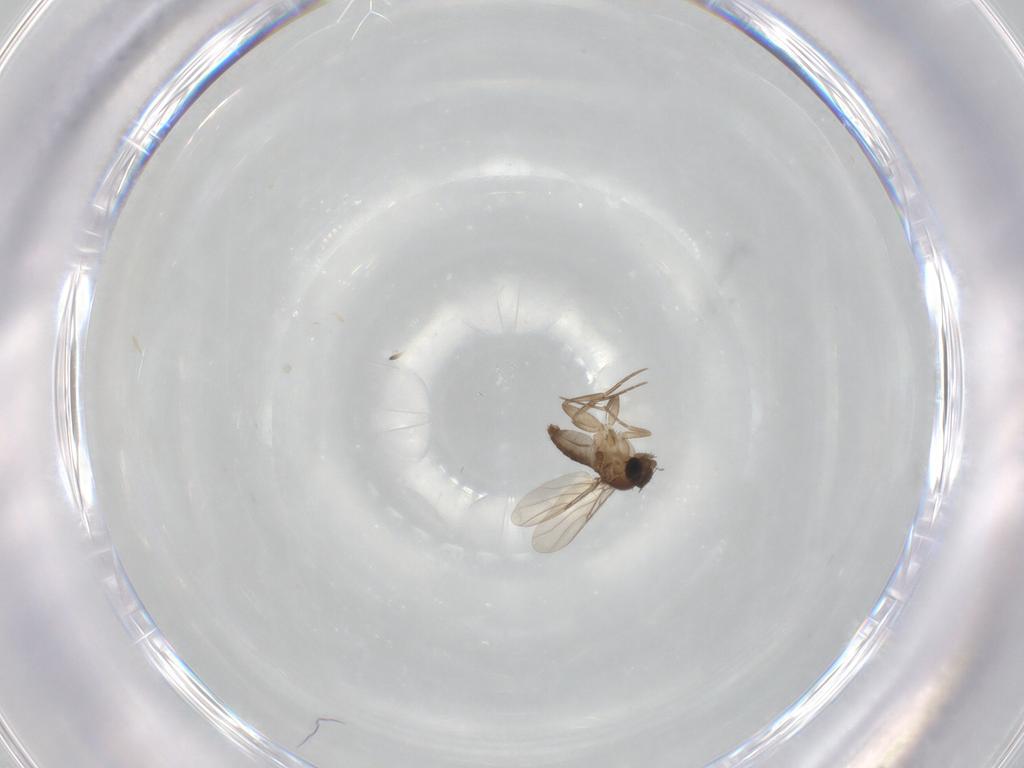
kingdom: Animalia
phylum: Arthropoda
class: Insecta
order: Diptera
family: Phoridae
